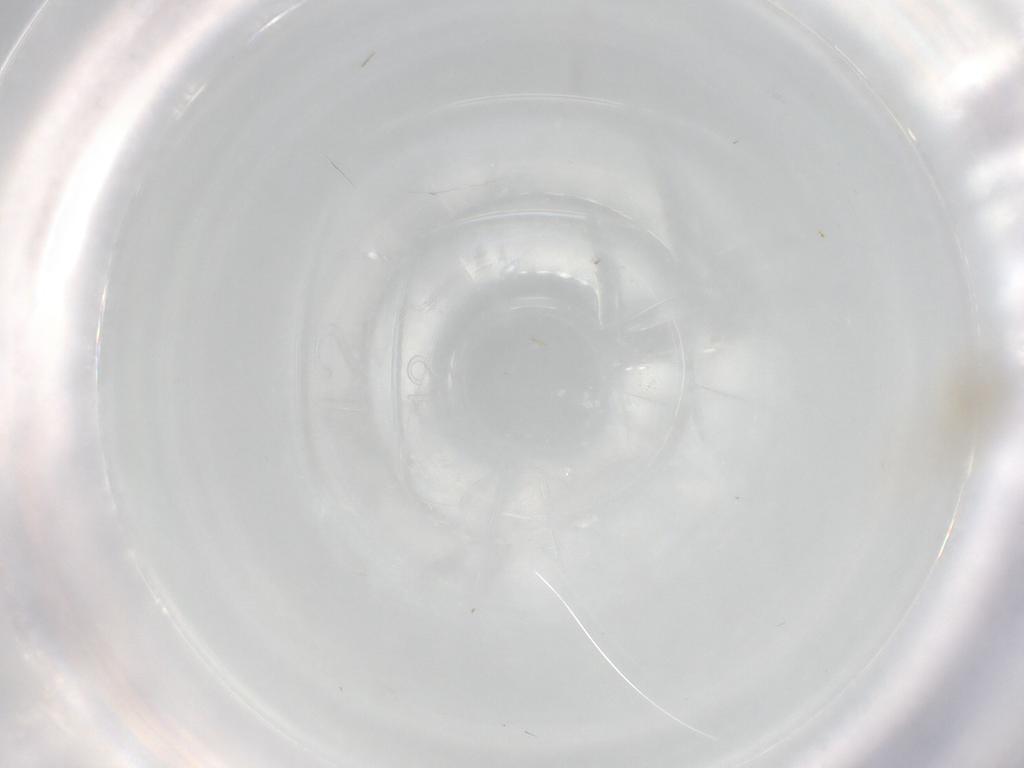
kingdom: Animalia
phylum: Arthropoda
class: Insecta
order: Diptera
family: Chironomidae
